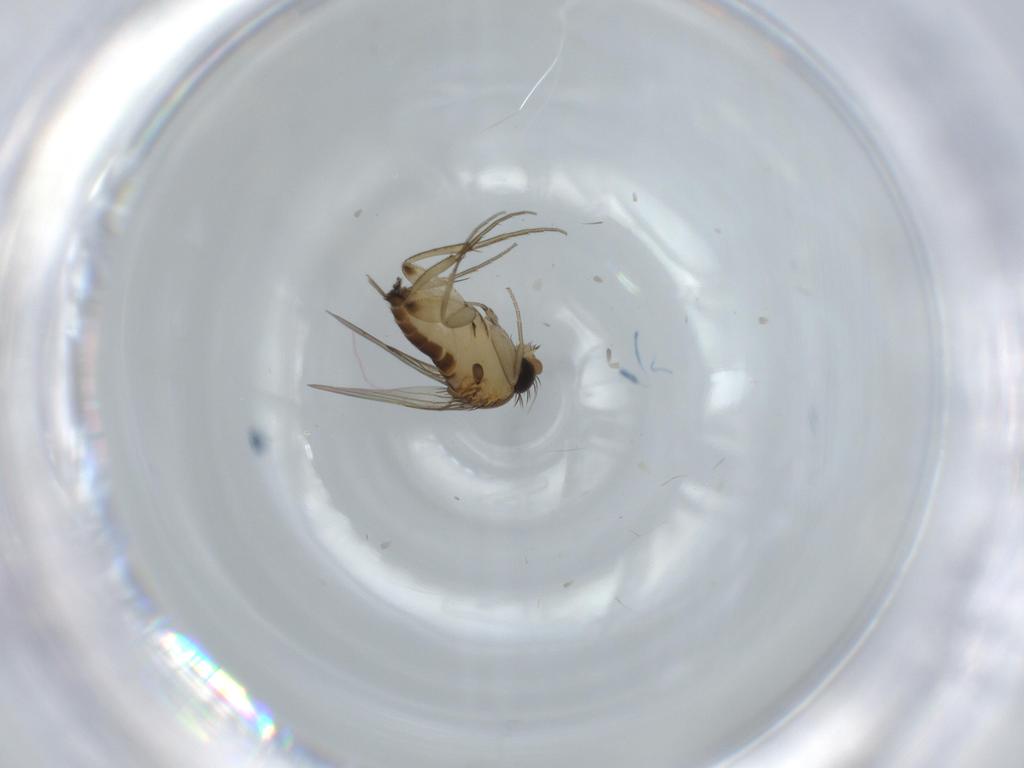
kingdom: Animalia
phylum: Arthropoda
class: Insecta
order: Diptera
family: Phoridae
